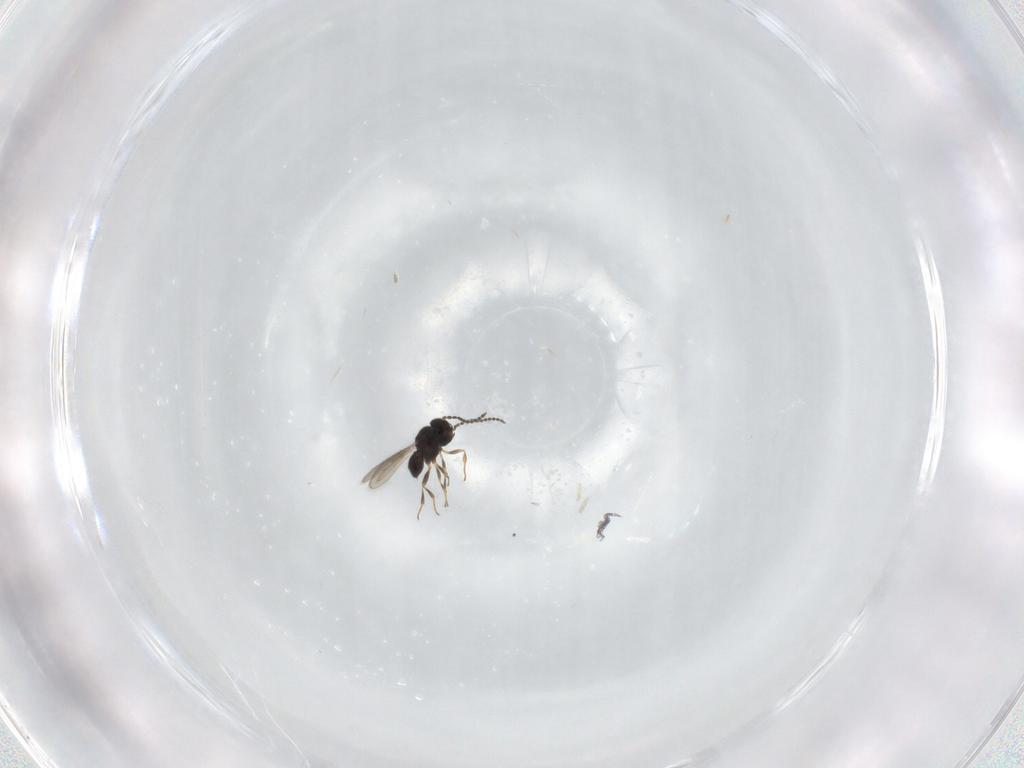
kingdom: Animalia
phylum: Arthropoda
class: Insecta
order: Hymenoptera
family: Scelionidae
